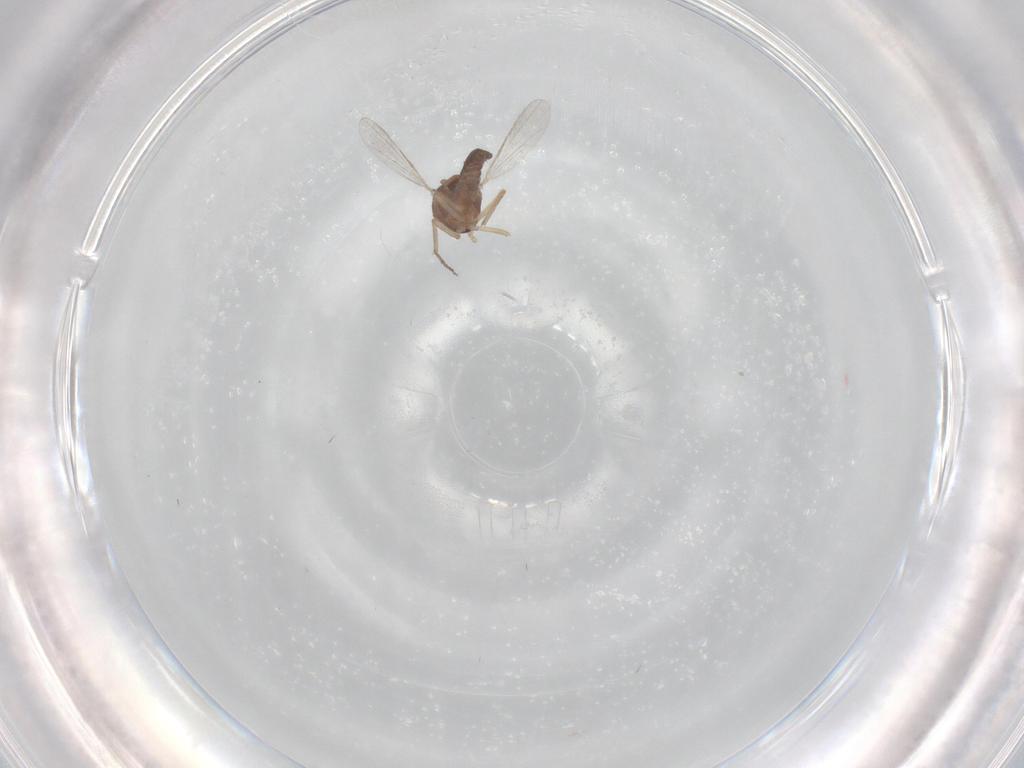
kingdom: Animalia
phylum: Arthropoda
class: Insecta
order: Diptera
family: Ceratopogonidae
